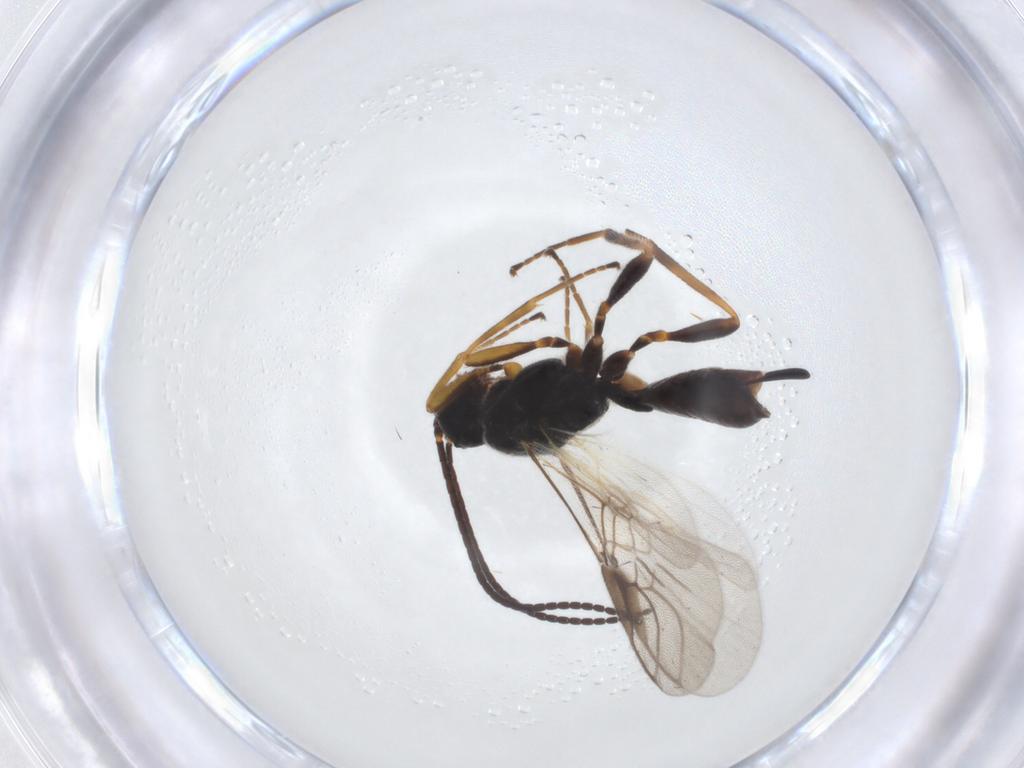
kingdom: Animalia
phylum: Arthropoda
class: Insecta
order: Hymenoptera
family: Braconidae
